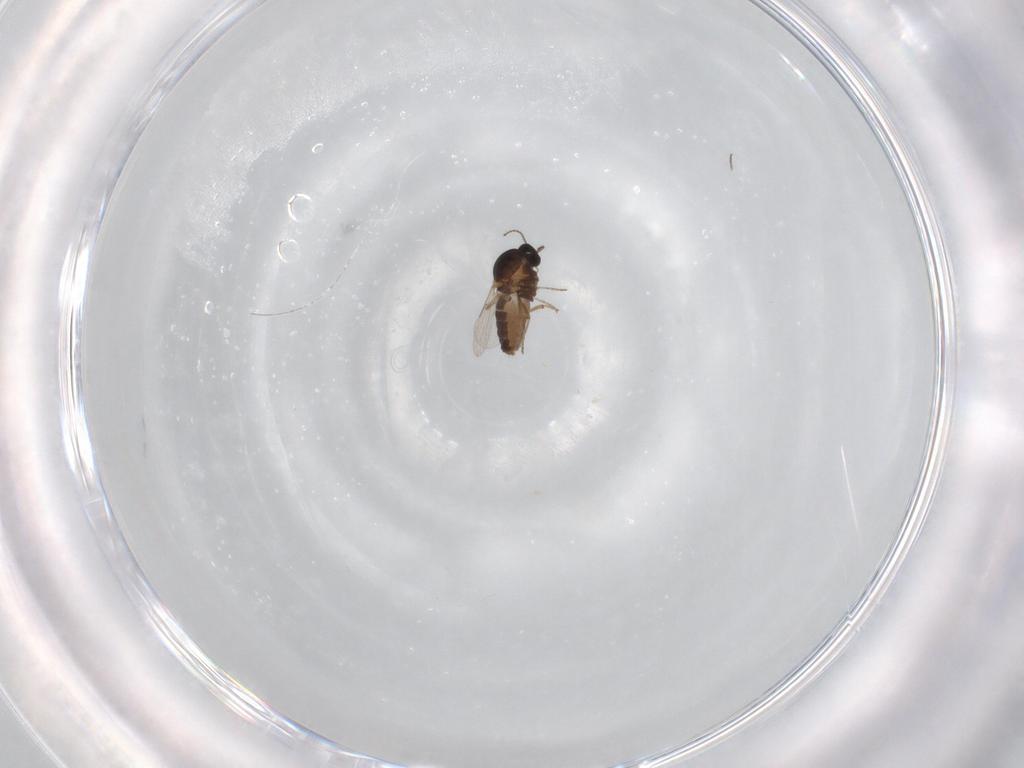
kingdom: Animalia
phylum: Arthropoda
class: Insecta
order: Diptera
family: Ceratopogonidae
